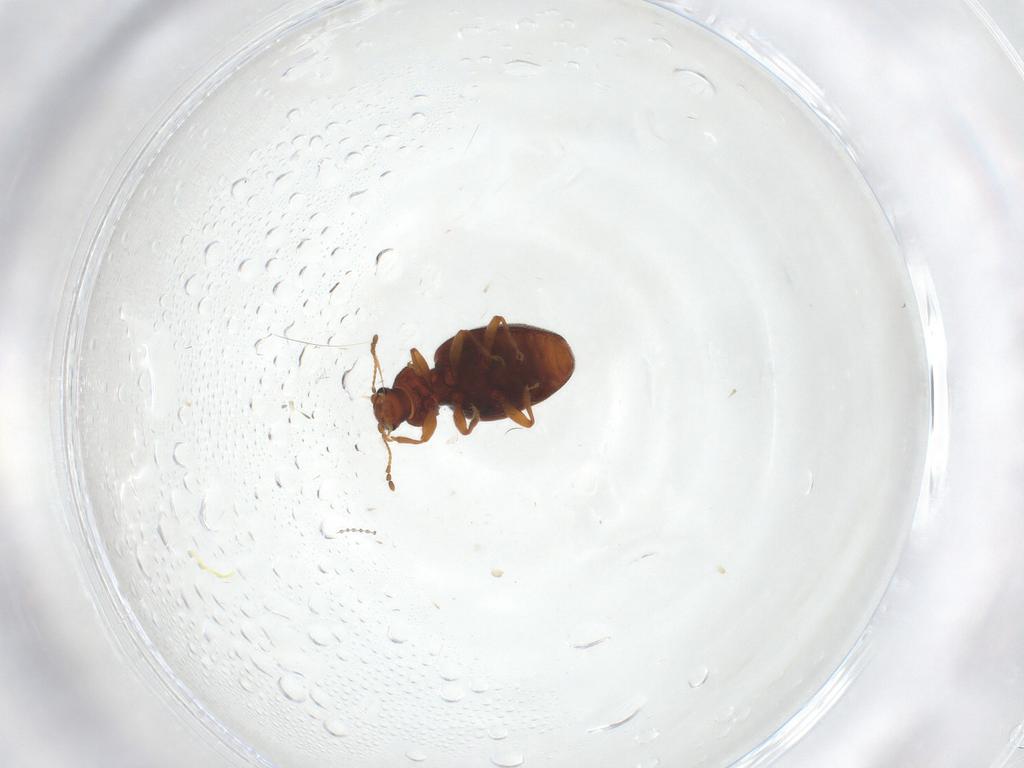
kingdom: Animalia
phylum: Arthropoda
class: Insecta
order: Coleoptera
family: Latridiidae
